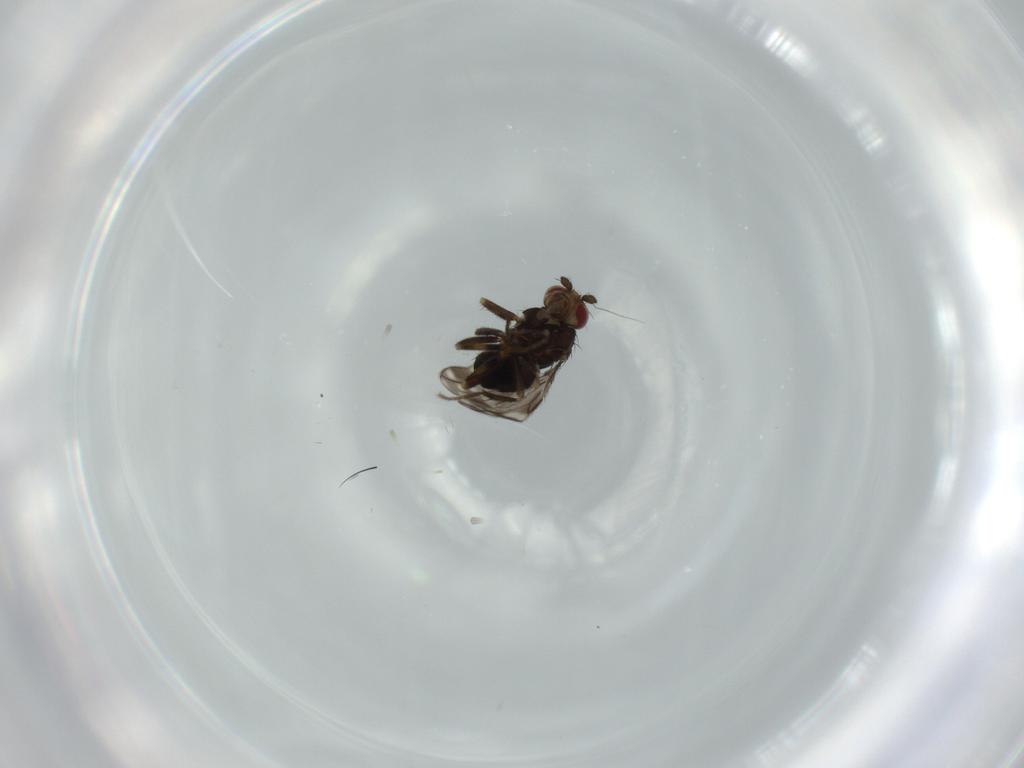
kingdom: Animalia
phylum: Arthropoda
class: Insecta
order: Diptera
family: Sphaeroceridae
